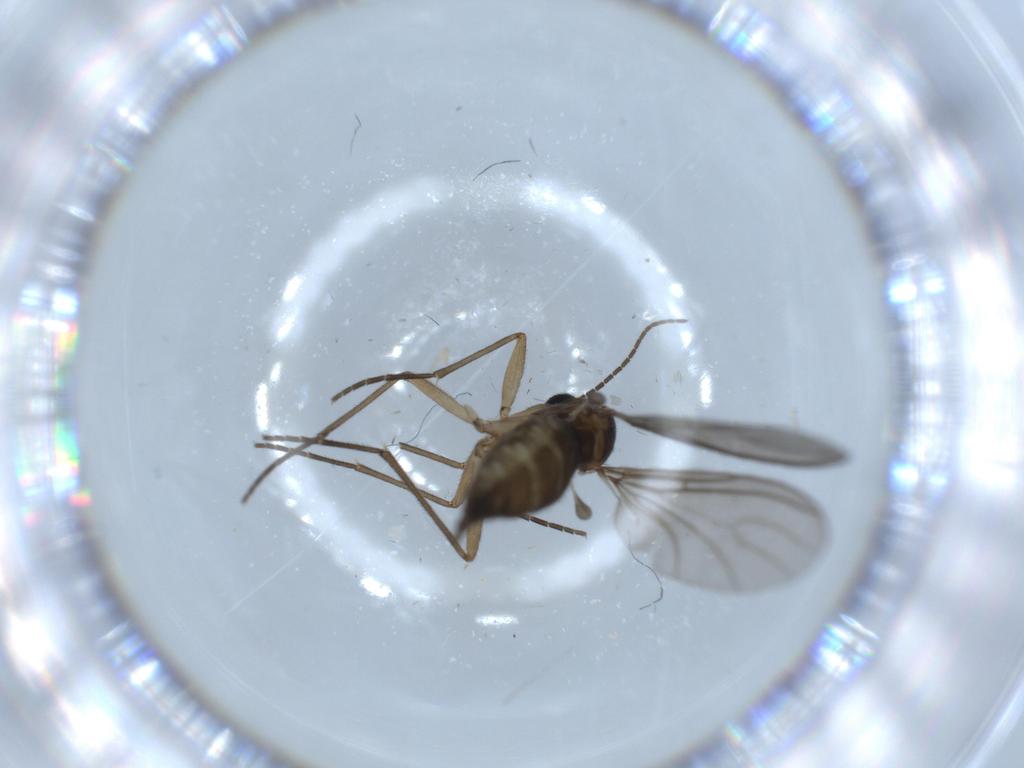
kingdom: Animalia
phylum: Arthropoda
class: Insecta
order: Diptera
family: Sciaridae
